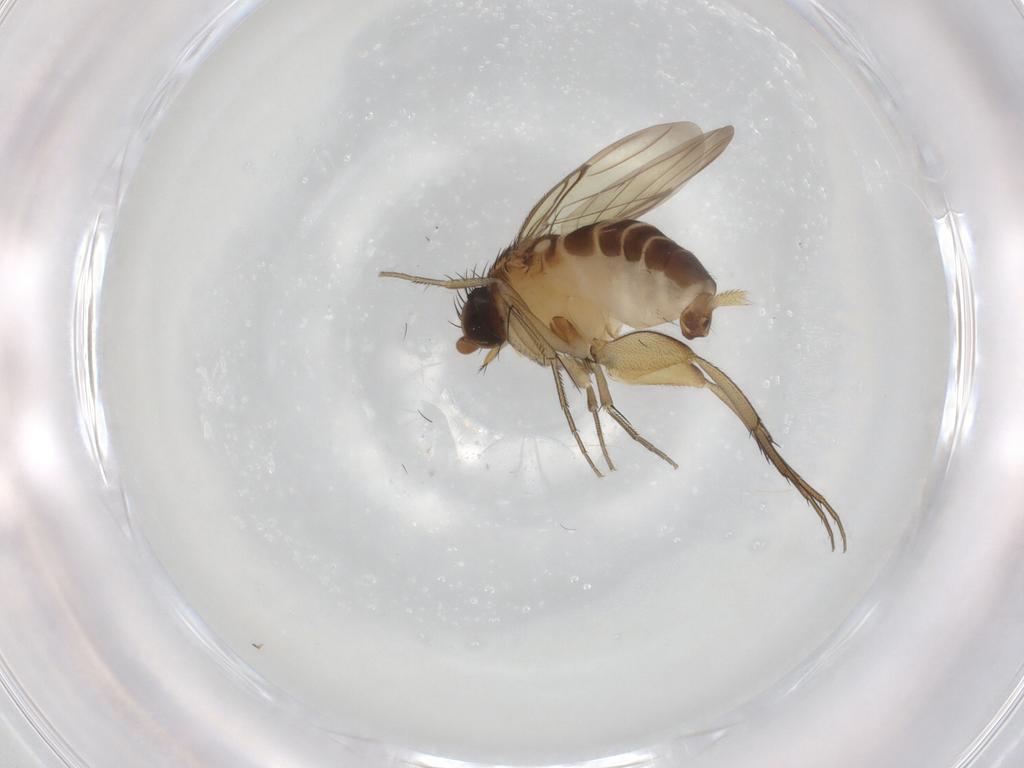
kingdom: Animalia
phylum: Arthropoda
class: Insecta
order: Diptera
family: Phoridae
